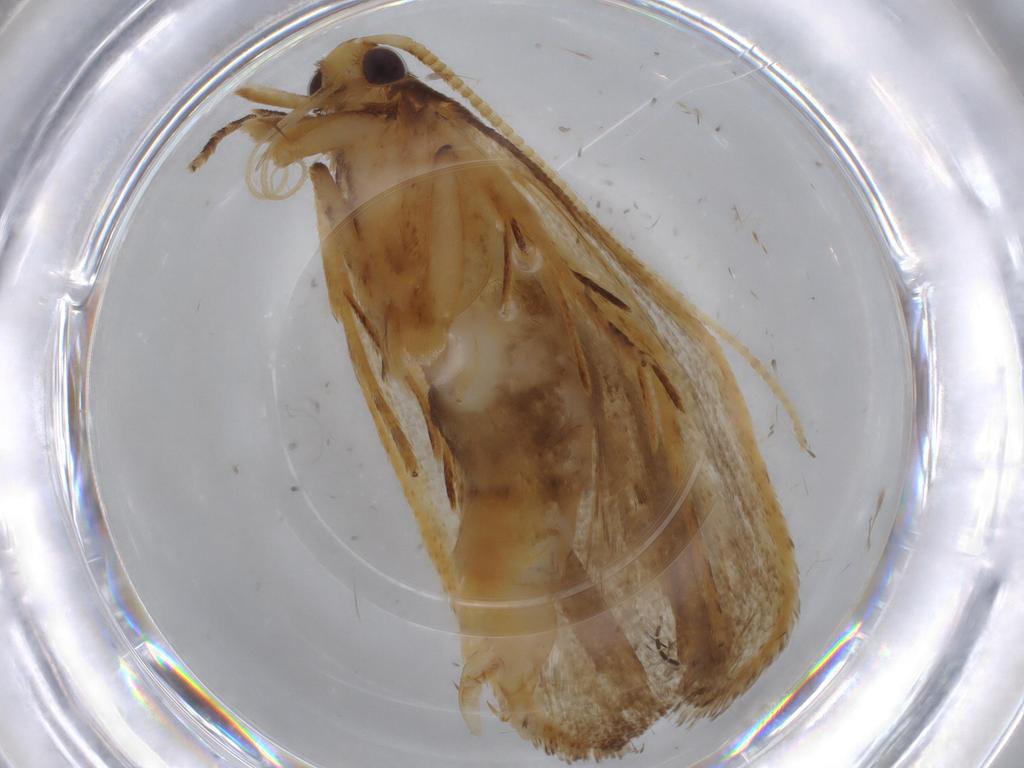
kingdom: Animalia
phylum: Arthropoda
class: Insecta
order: Lepidoptera
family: Lecithoceridae
